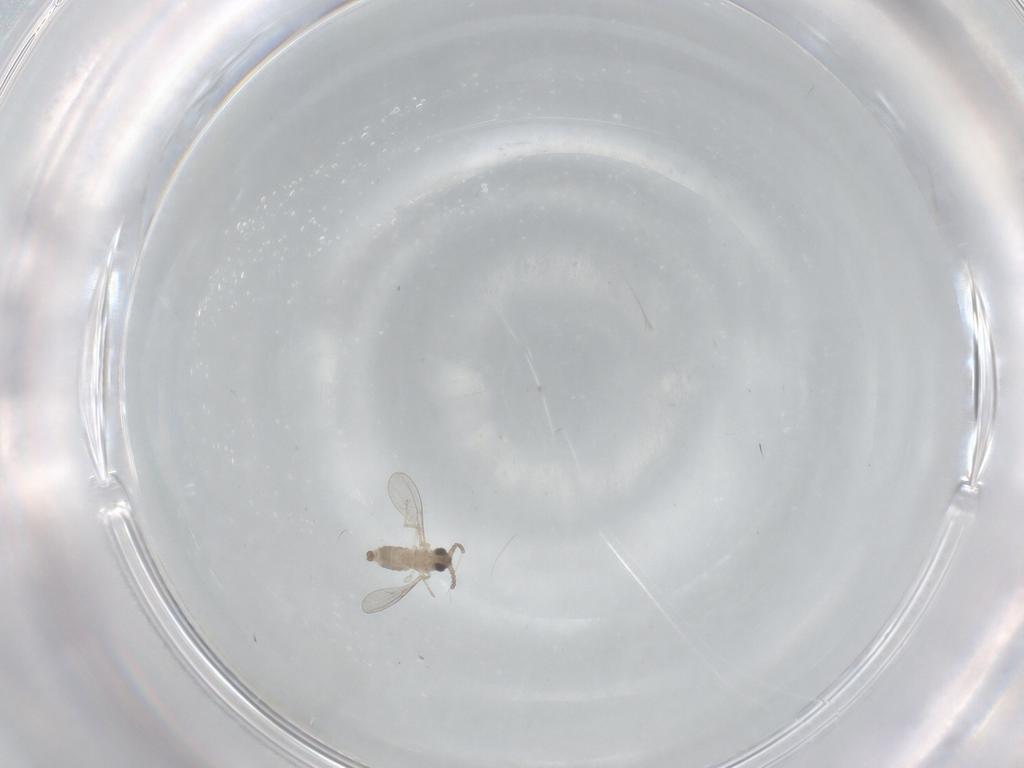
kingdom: Animalia
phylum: Arthropoda
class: Insecta
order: Diptera
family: Cecidomyiidae
